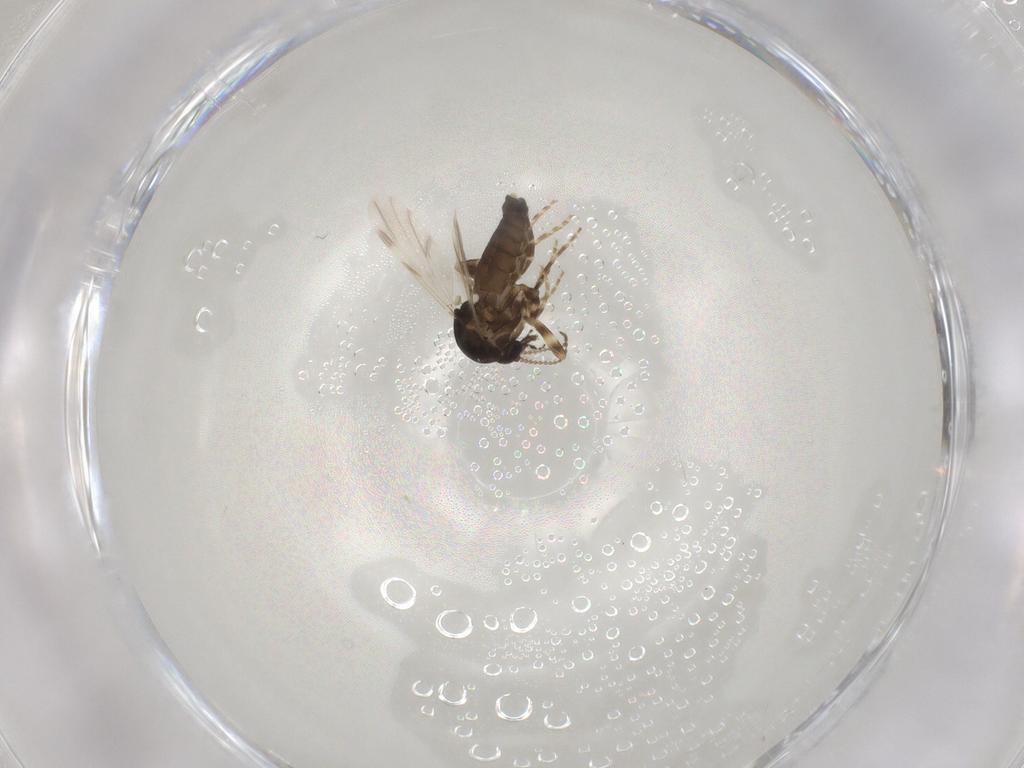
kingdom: Animalia
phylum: Arthropoda
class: Insecta
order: Diptera
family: Ceratopogonidae
